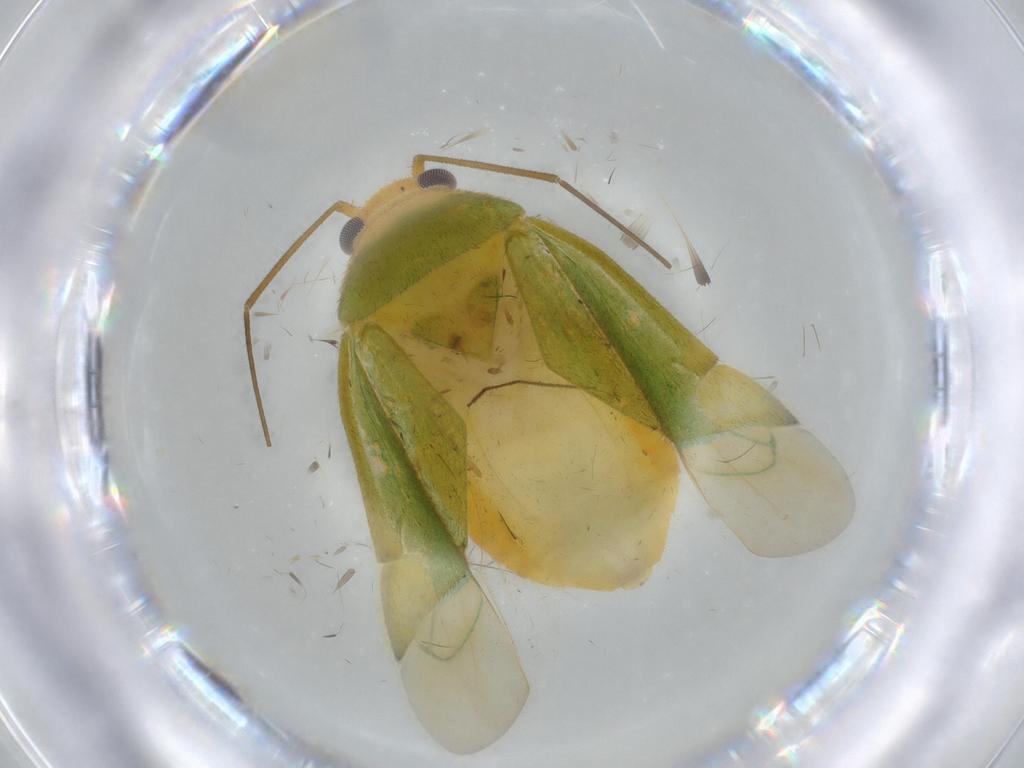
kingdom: Animalia
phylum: Arthropoda
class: Insecta
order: Hemiptera
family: Miridae
